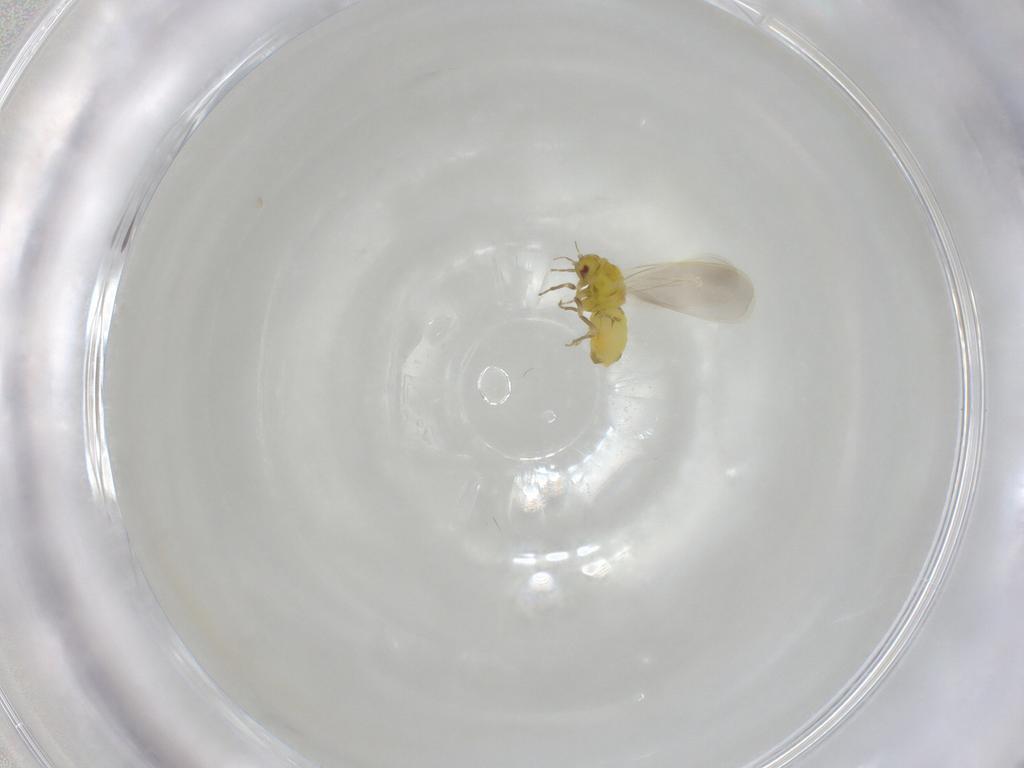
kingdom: Animalia
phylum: Arthropoda
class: Insecta
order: Hemiptera
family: Aleyrodidae
